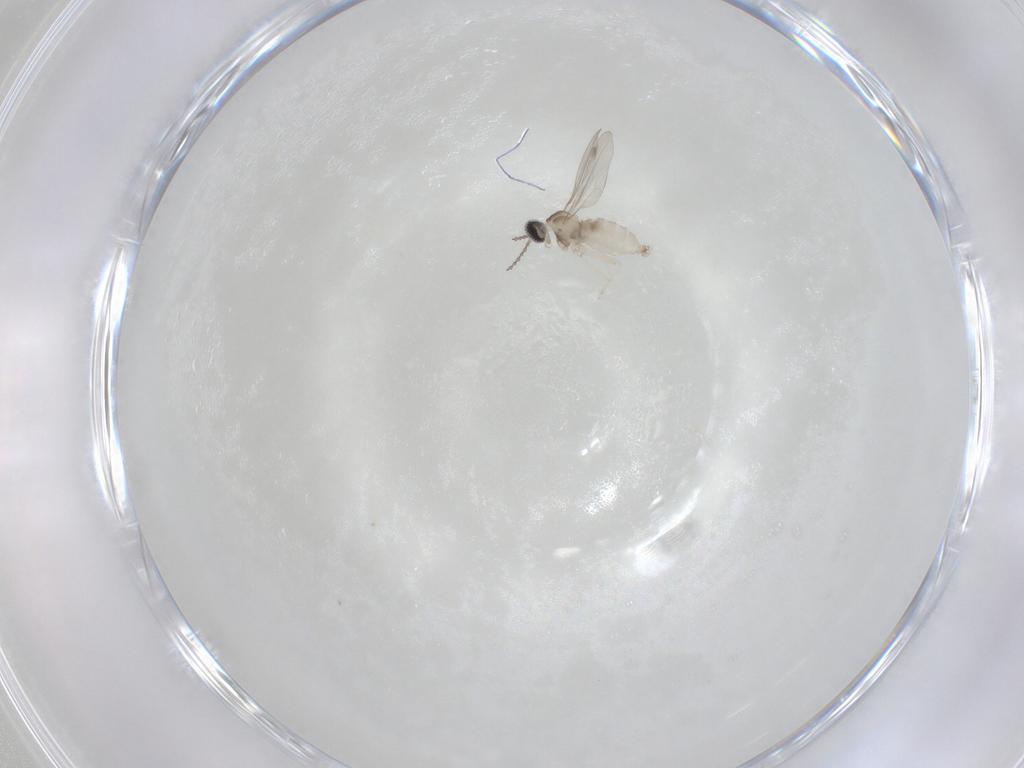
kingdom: Animalia
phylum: Arthropoda
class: Insecta
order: Diptera
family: Cecidomyiidae
